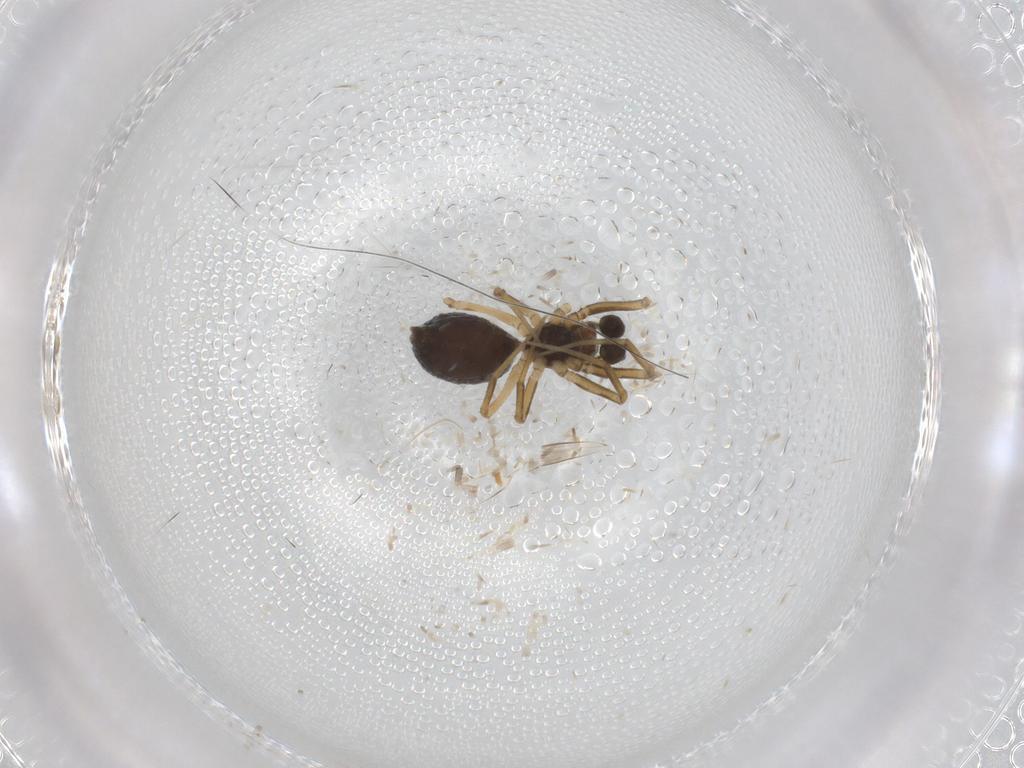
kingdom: Animalia
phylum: Arthropoda
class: Arachnida
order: Araneae
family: Linyphiidae
